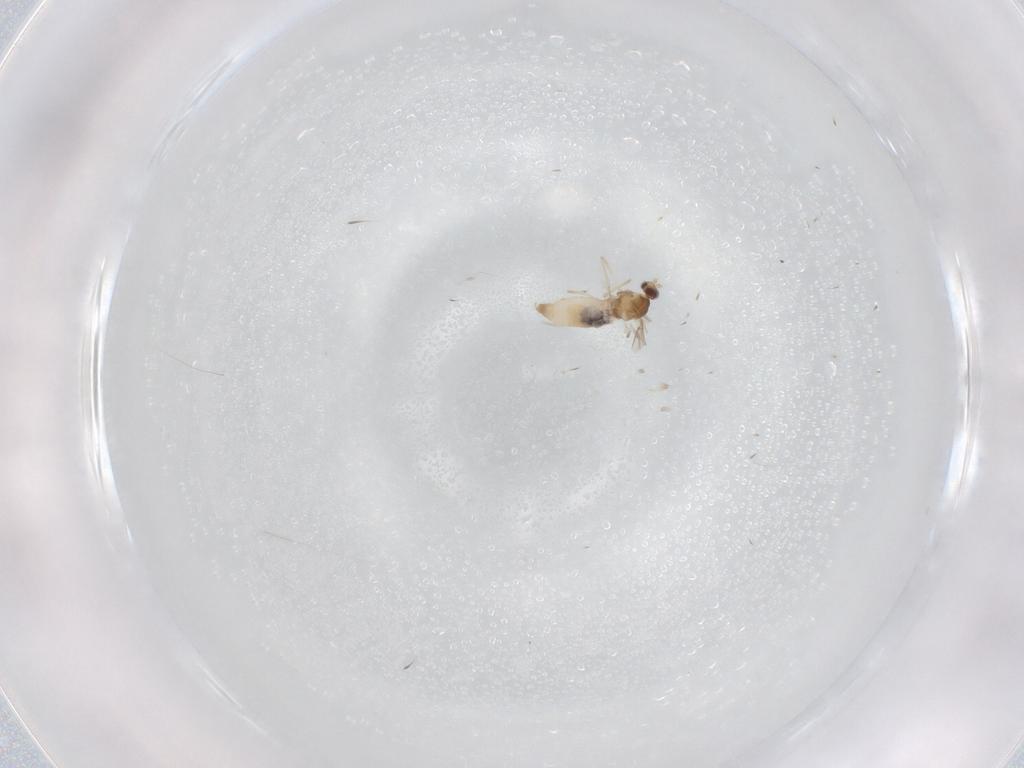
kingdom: Animalia
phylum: Arthropoda
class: Insecta
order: Diptera
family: Cecidomyiidae
